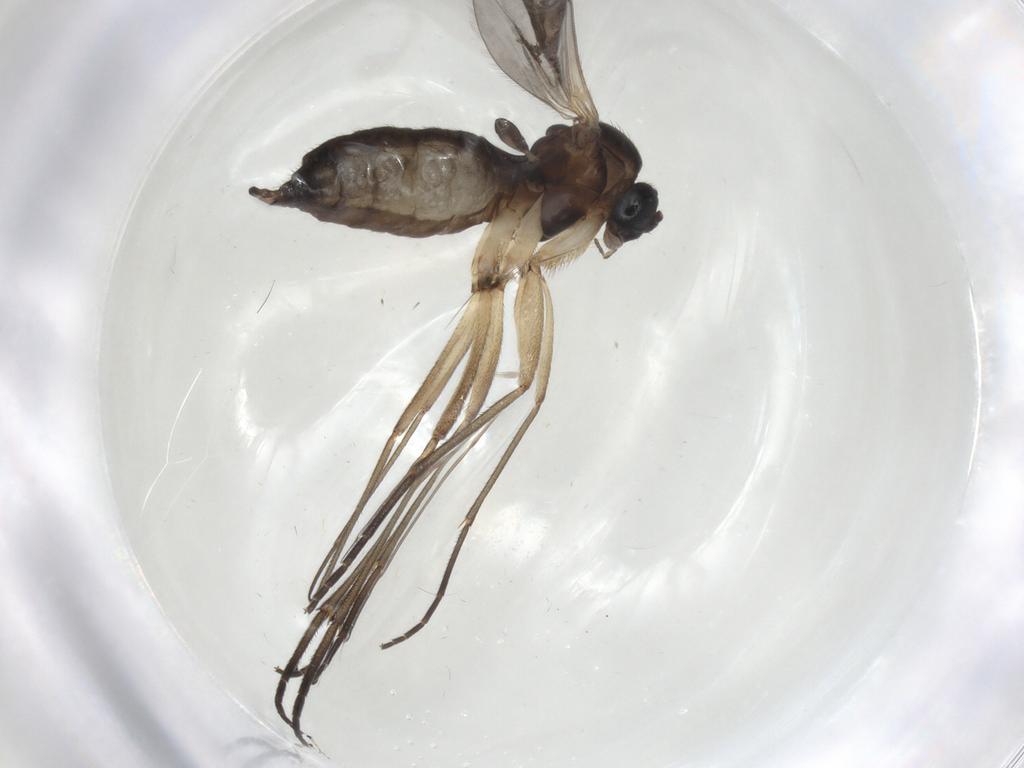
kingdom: Animalia
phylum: Arthropoda
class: Insecta
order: Diptera
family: Sciaridae
